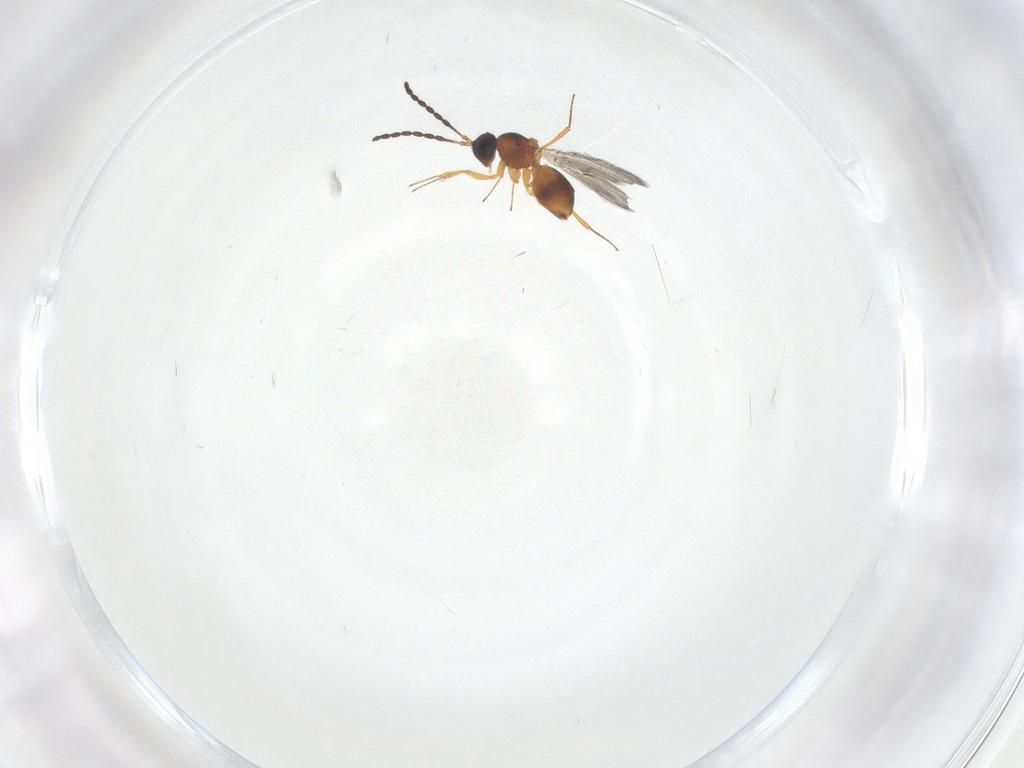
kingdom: Animalia
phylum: Arthropoda
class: Insecta
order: Hymenoptera
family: Figitidae
